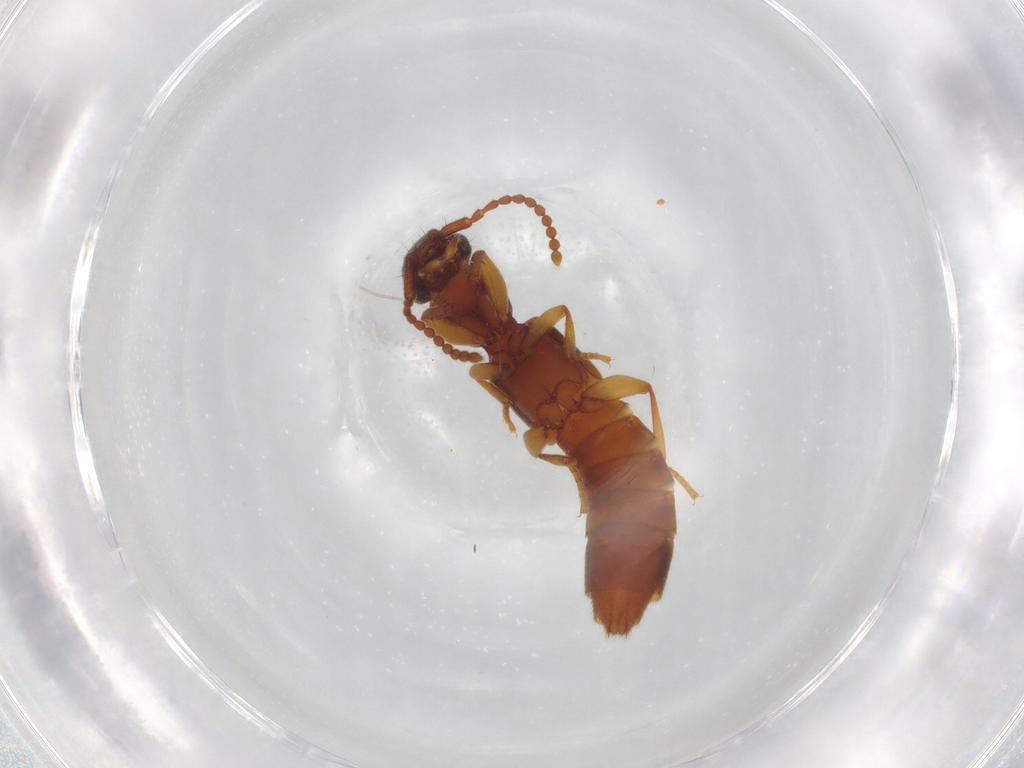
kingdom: Animalia
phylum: Arthropoda
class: Insecta
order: Coleoptera
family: Staphylinidae
